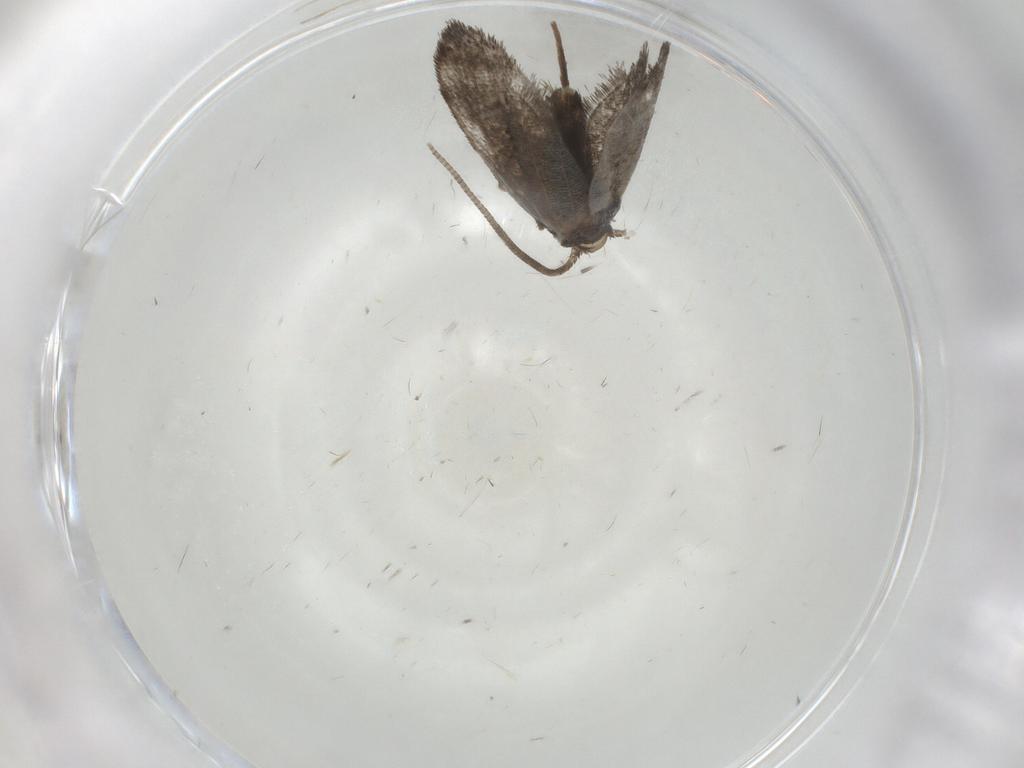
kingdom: Animalia
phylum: Arthropoda
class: Insecta
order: Lepidoptera
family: Nymphalidae
